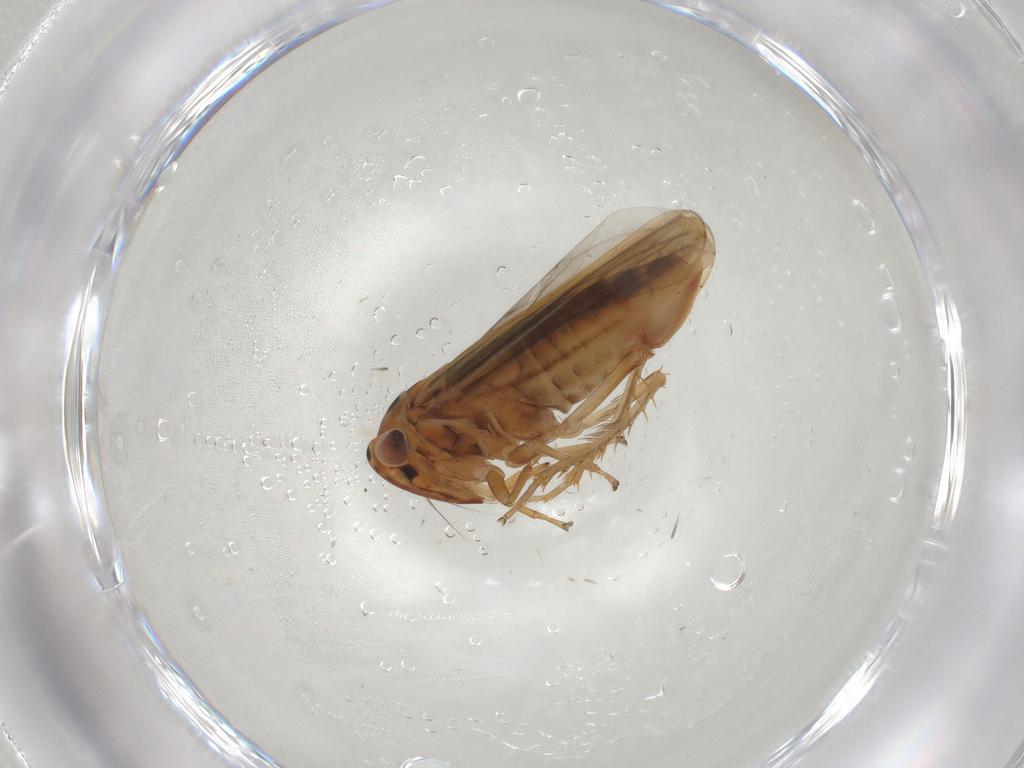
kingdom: Animalia
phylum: Arthropoda
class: Insecta
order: Hemiptera
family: Cicadellidae
